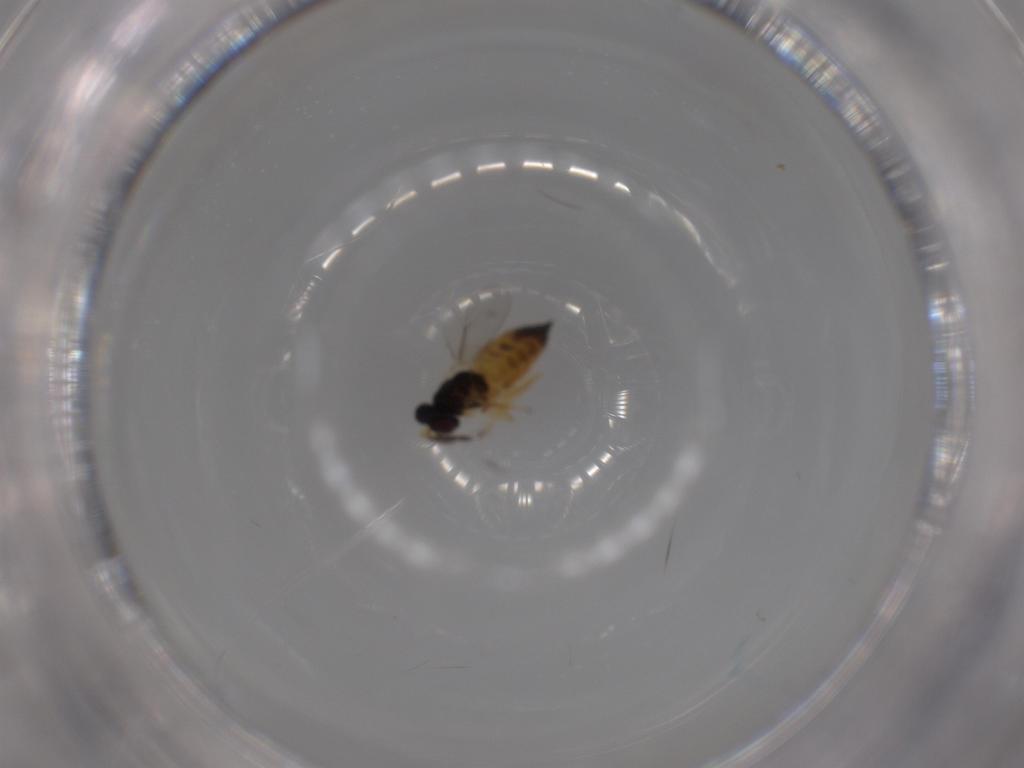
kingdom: Animalia
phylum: Arthropoda
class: Insecta
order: Hymenoptera
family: Eulophidae
